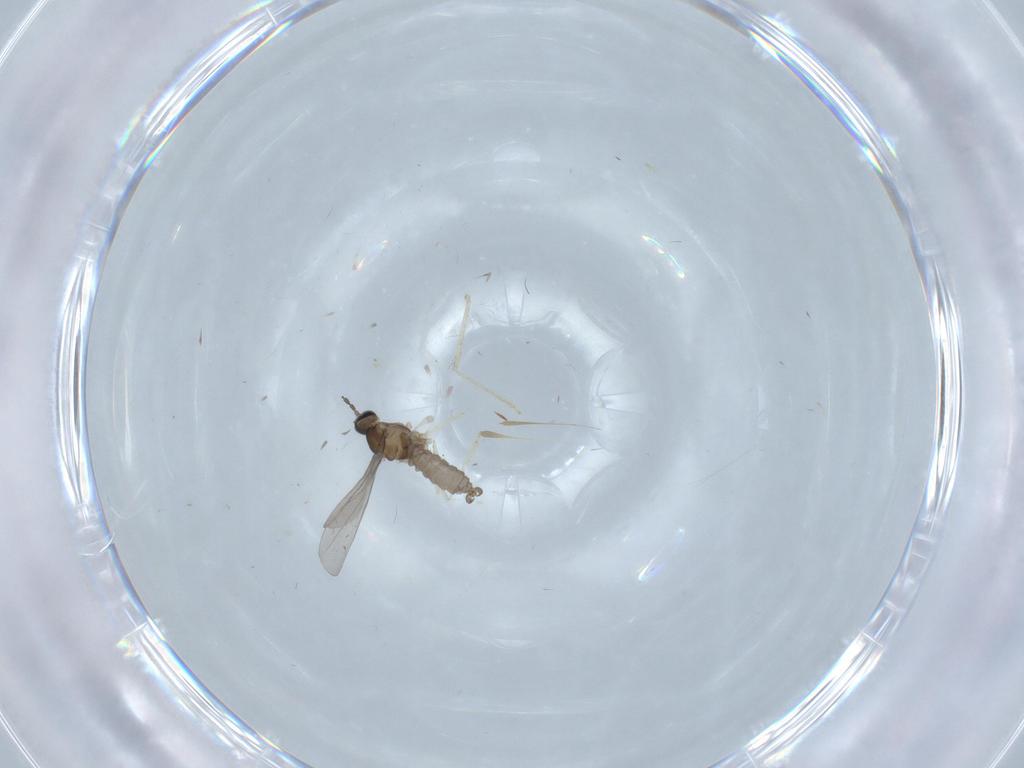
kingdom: Animalia
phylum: Arthropoda
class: Insecta
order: Diptera
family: Cecidomyiidae
